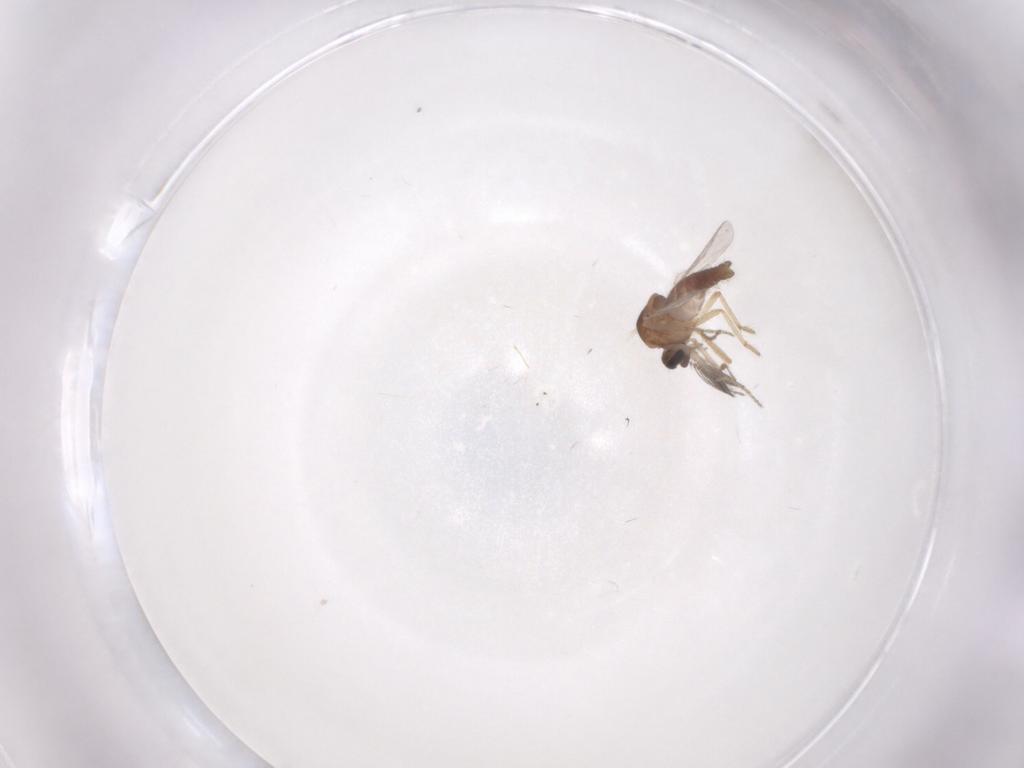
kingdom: Animalia
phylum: Arthropoda
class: Insecta
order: Diptera
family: Ceratopogonidae
